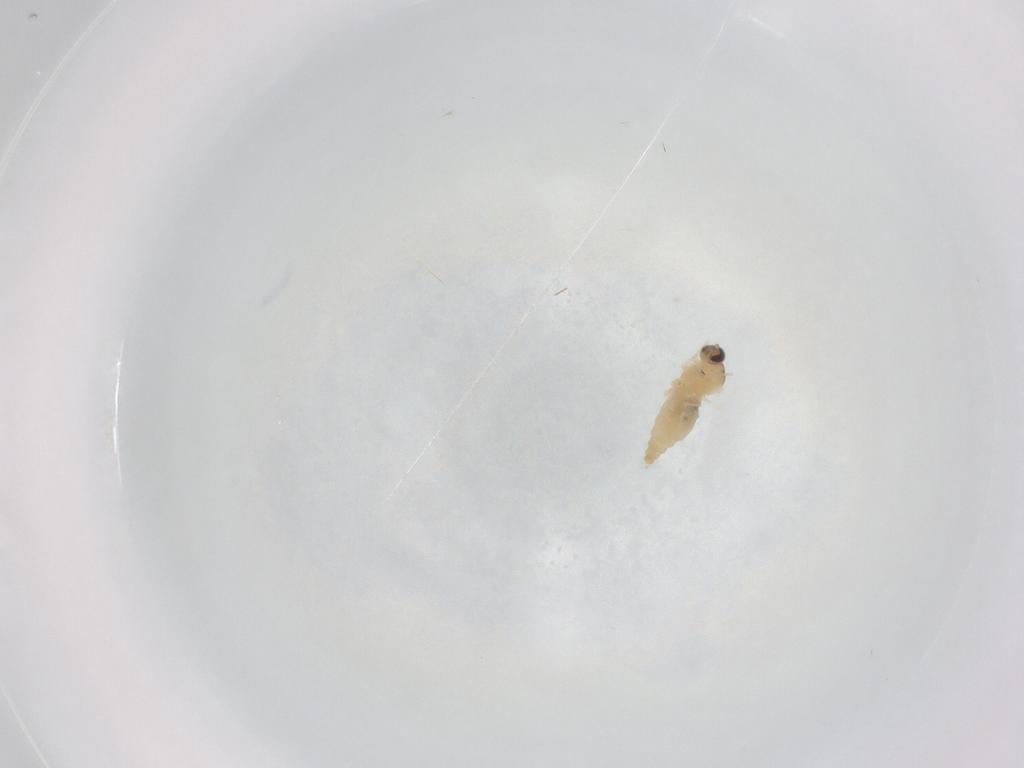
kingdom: Animalia
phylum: Arthropoda
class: Insecta
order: Diptera
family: Cecidomyiidae
